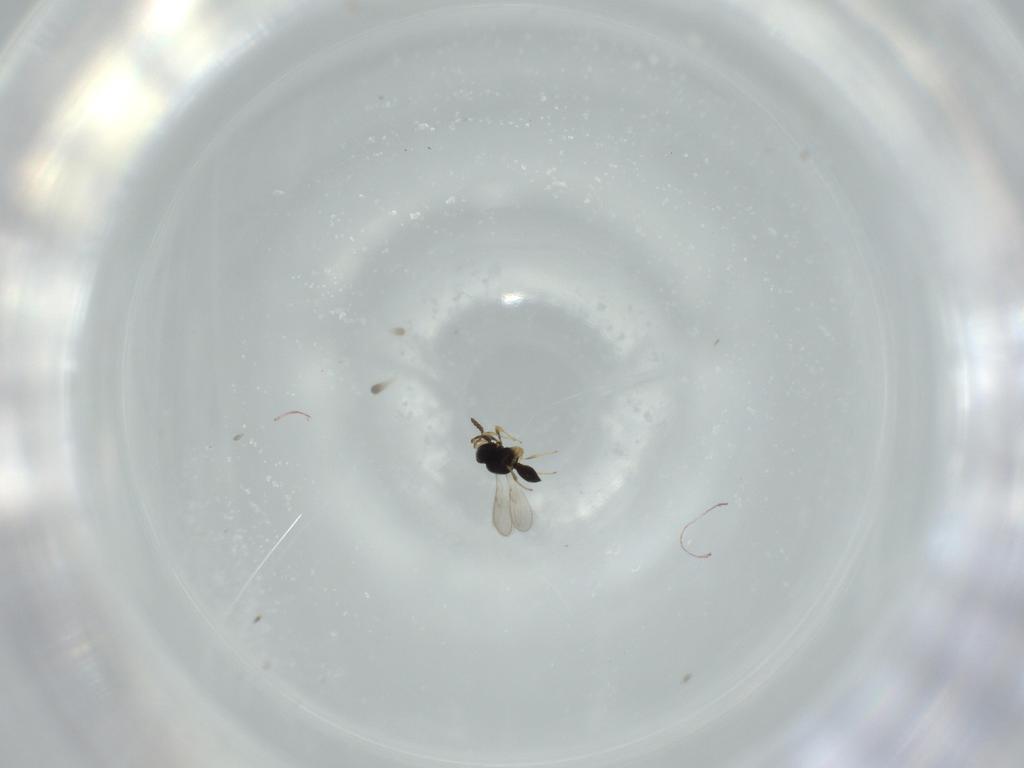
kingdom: Animalia
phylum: Arthropoda
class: Insecta
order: Hymenoptera
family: Scelionidae
